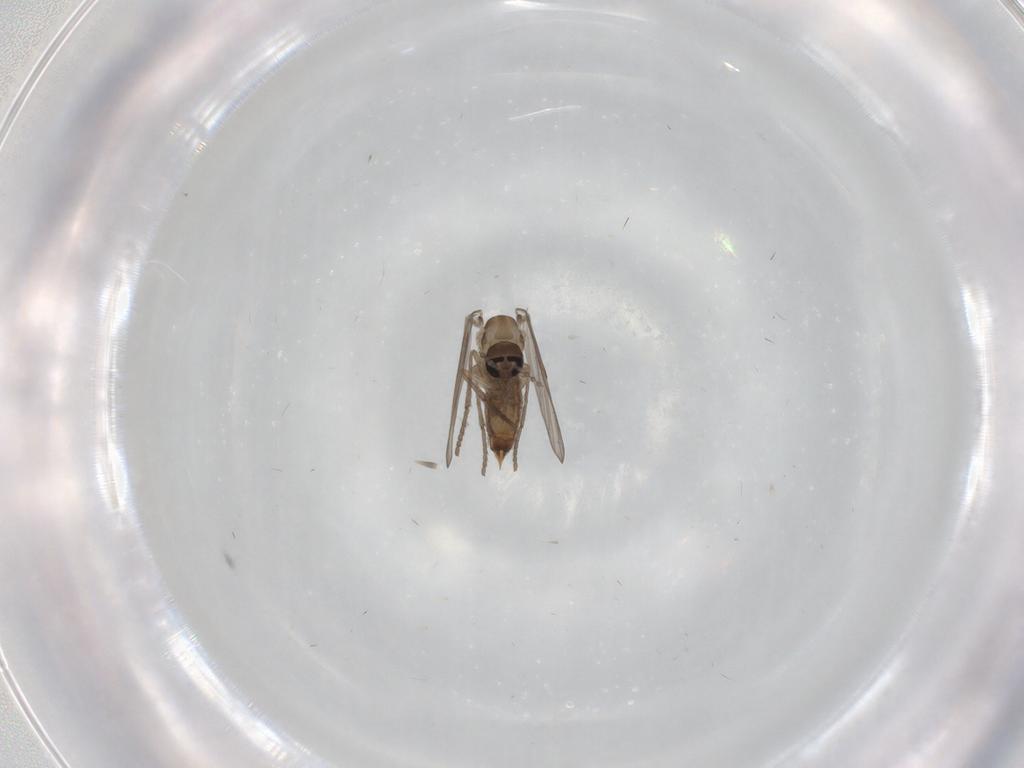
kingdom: Animalia
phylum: Arthropoda
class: Insecta
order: Diptera
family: Psychodidae
